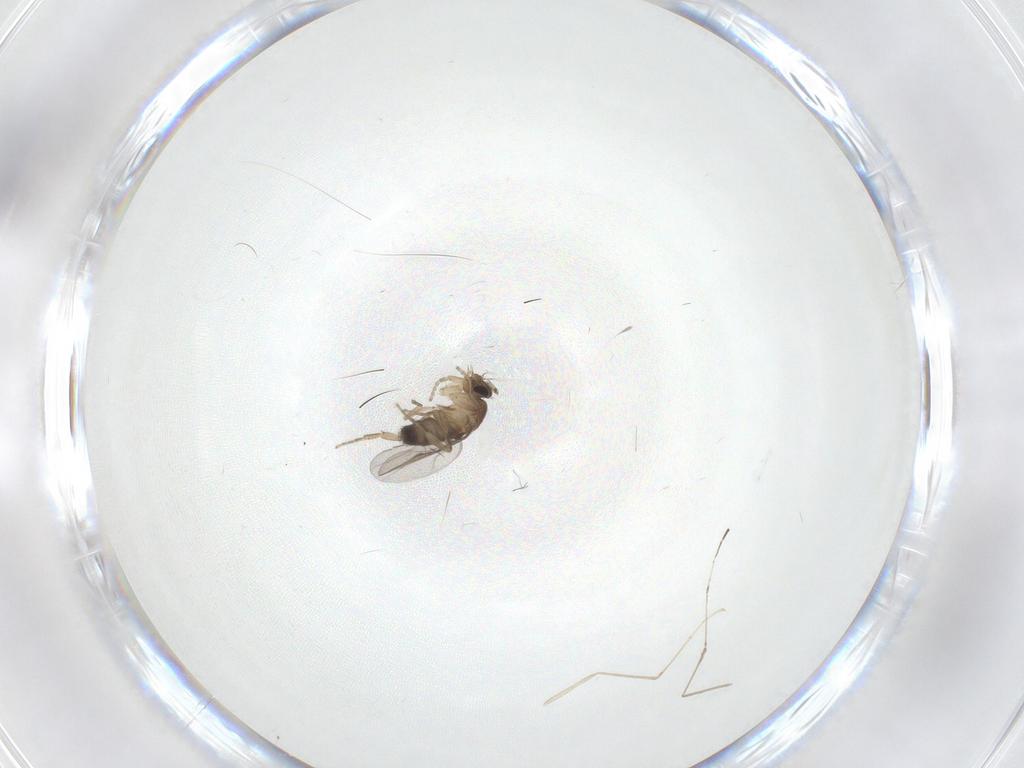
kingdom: Animalia
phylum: Arthropoda
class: Insecta
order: Diptera
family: Phoridae
